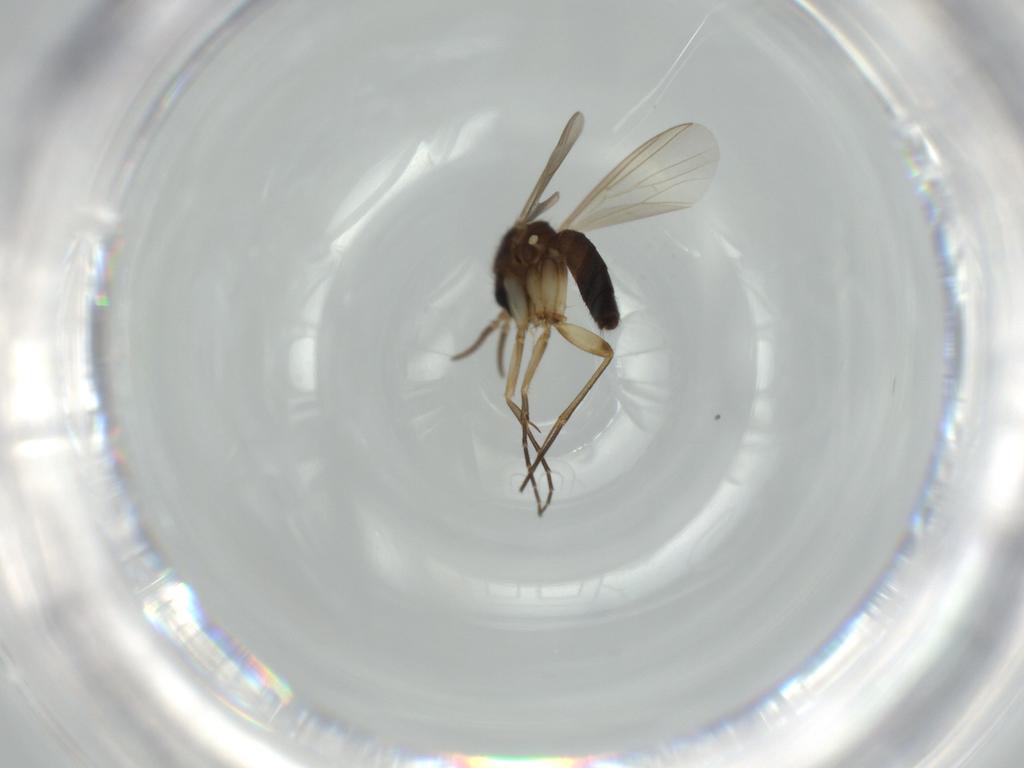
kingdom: Animalia
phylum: Arthropoda
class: Insecta
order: Diptera
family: Mycetophilidae
